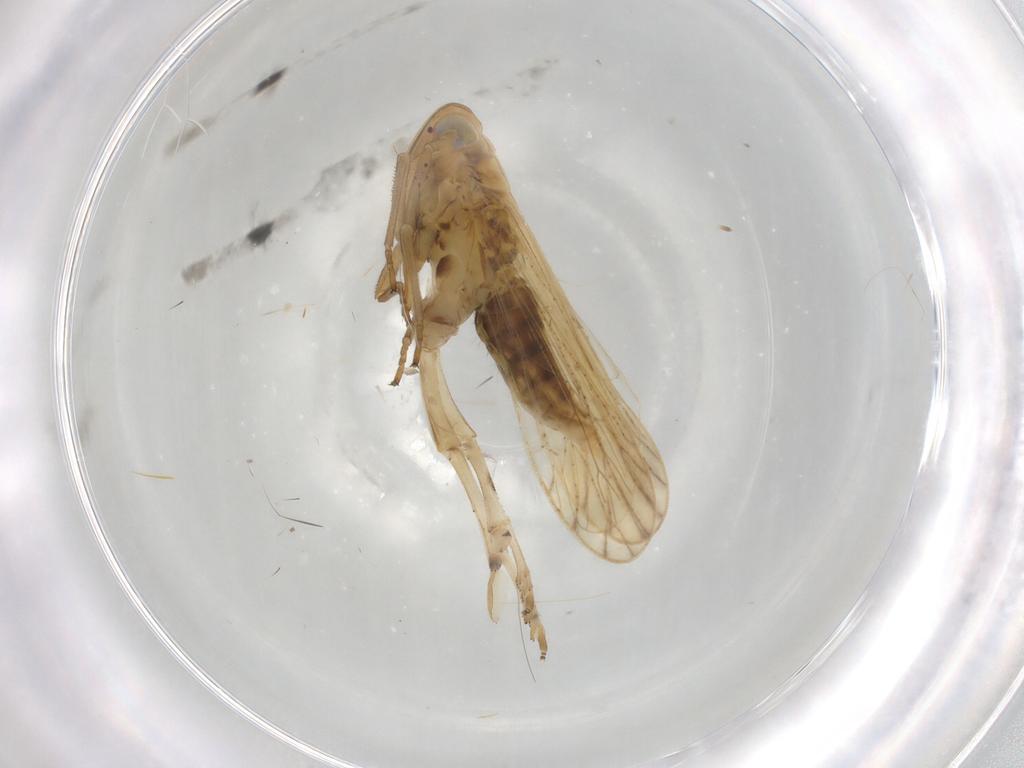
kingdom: Animalia
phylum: Arthropoda
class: Insecta
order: Hemiptera
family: Delphacidae
